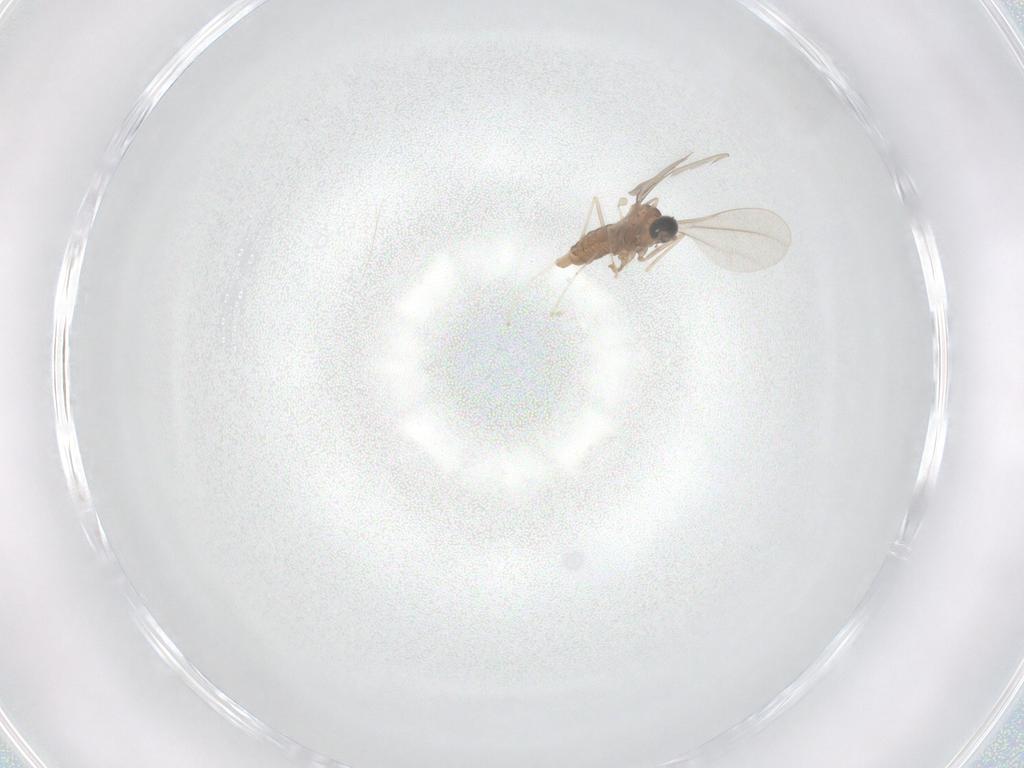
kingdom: Animalia
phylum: Arthropoda
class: Insecta
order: Diptera
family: Cecidomyiidae
